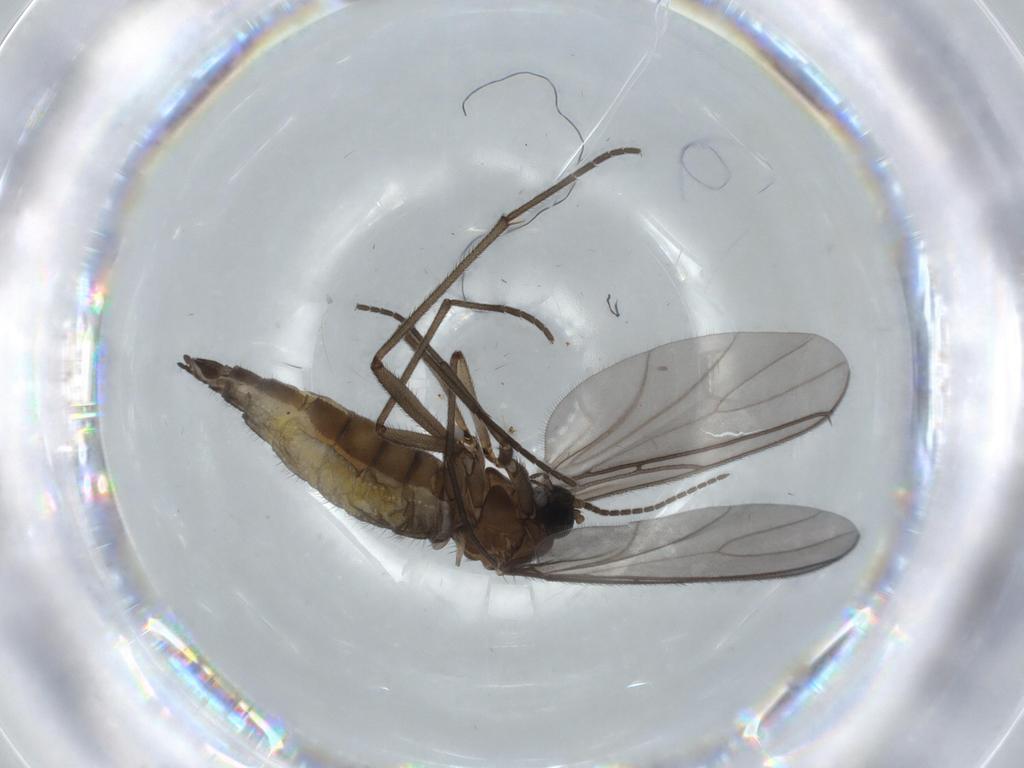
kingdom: Animalia
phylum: Arthropoda
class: Insecta
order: Diptera
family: Sciaridae
